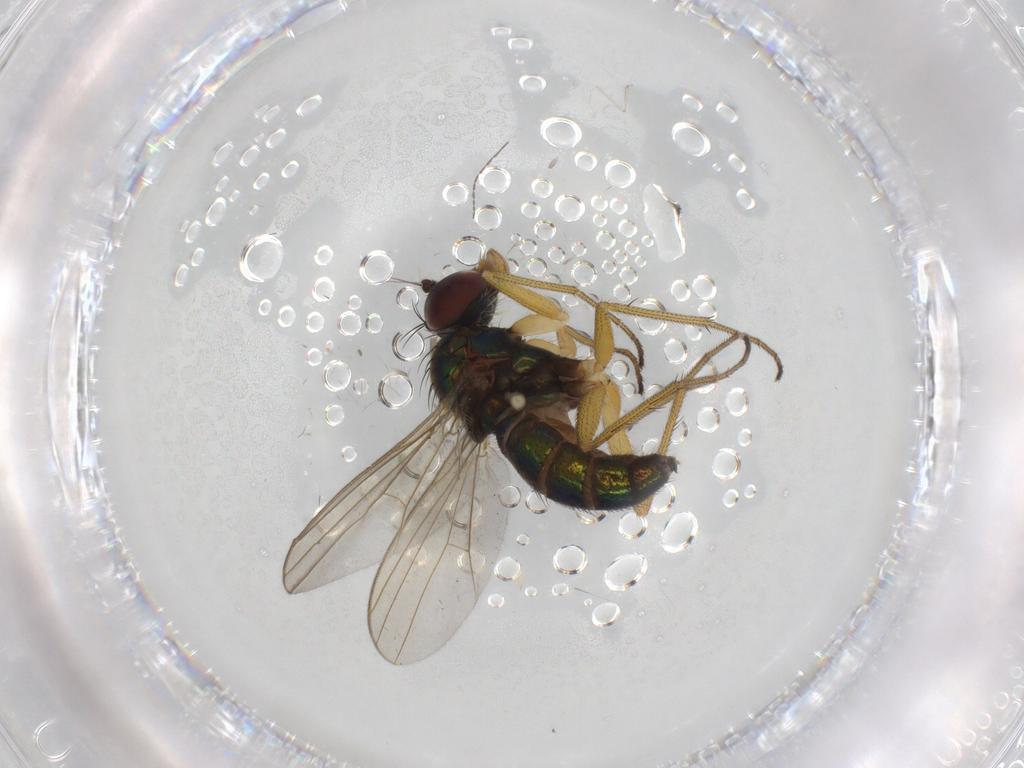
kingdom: Animalia
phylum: Arthropoda
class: Insecta
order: Diptera
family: Dolichopodidae
